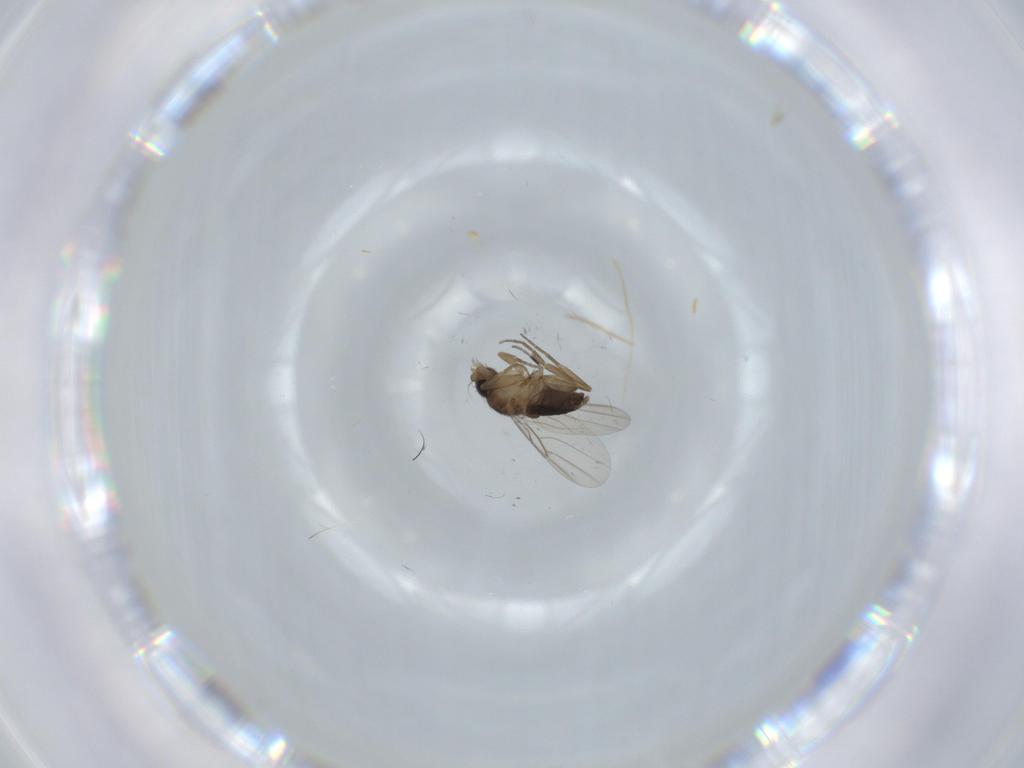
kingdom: Animalia
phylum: Arthropoda
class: Insecta
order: Diptera
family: Phoridae
